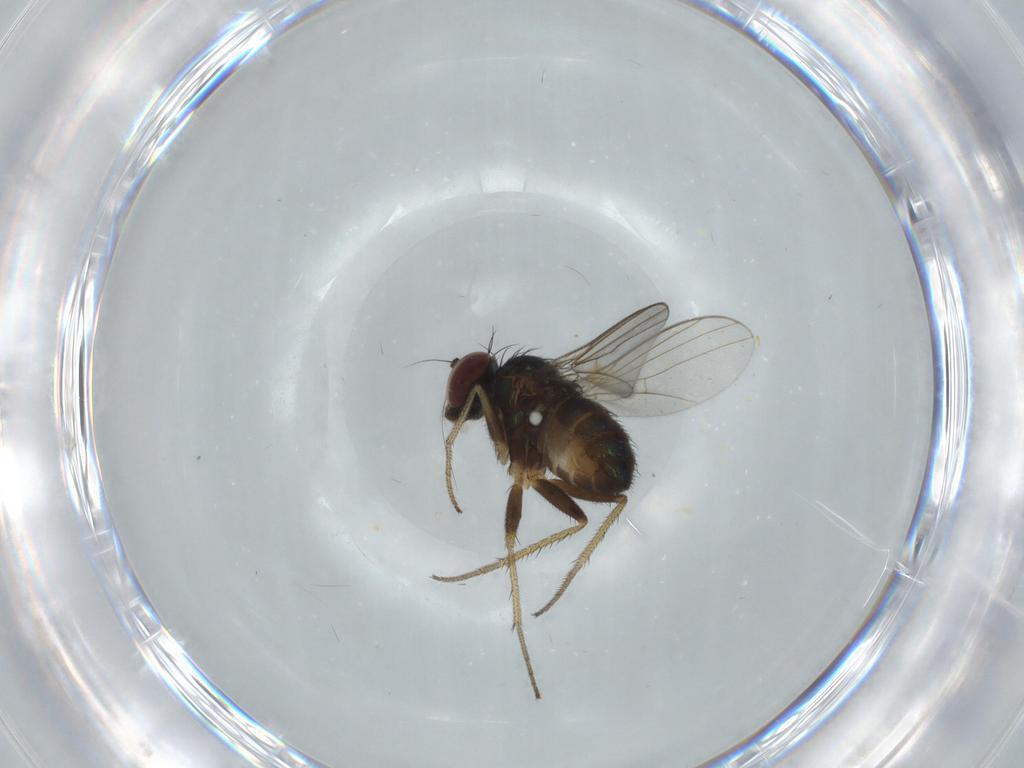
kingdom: Animalia
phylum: Arthropoda
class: Insecta
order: Diptera
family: Dolichopodidae
